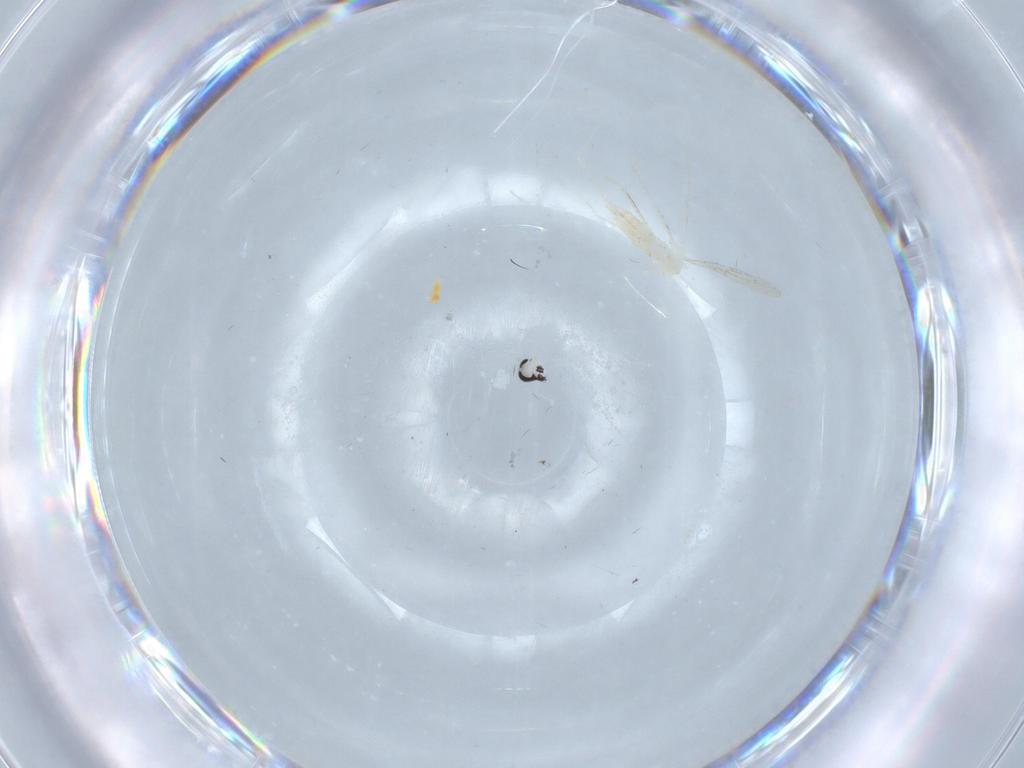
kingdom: Animalia
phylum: Arthropoda
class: Insecta
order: Diptera
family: Cecidomyiidae
